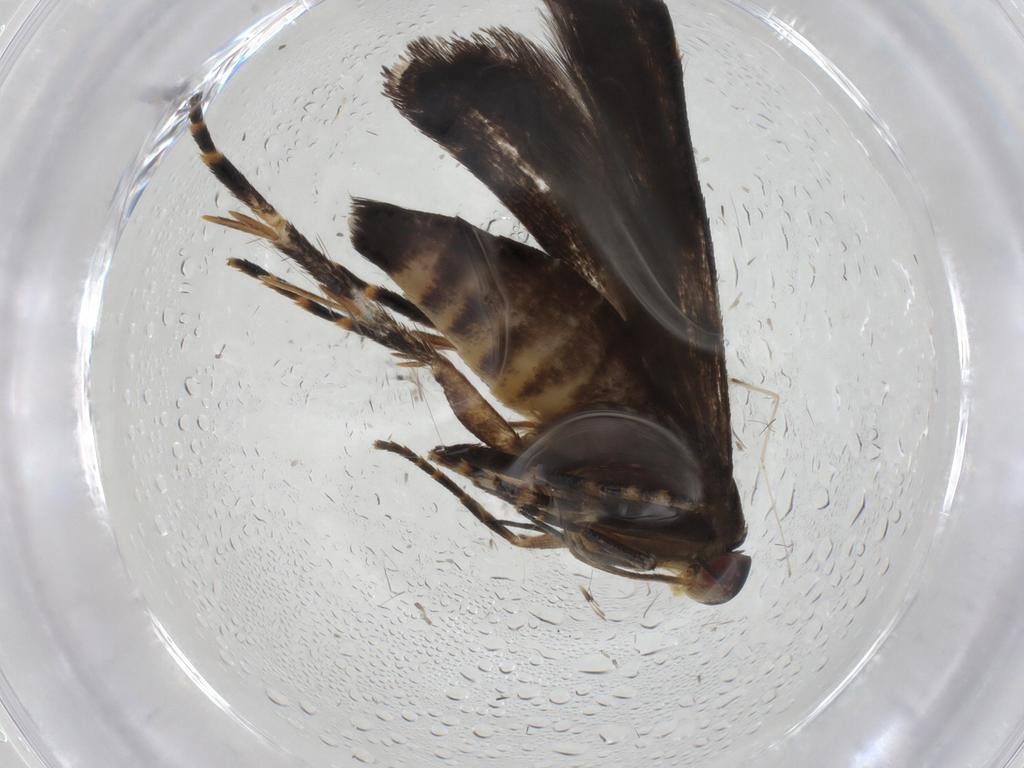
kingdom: Animalia
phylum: Arthropoda
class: Insecta
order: Lepidoptera
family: Gelechiidae
